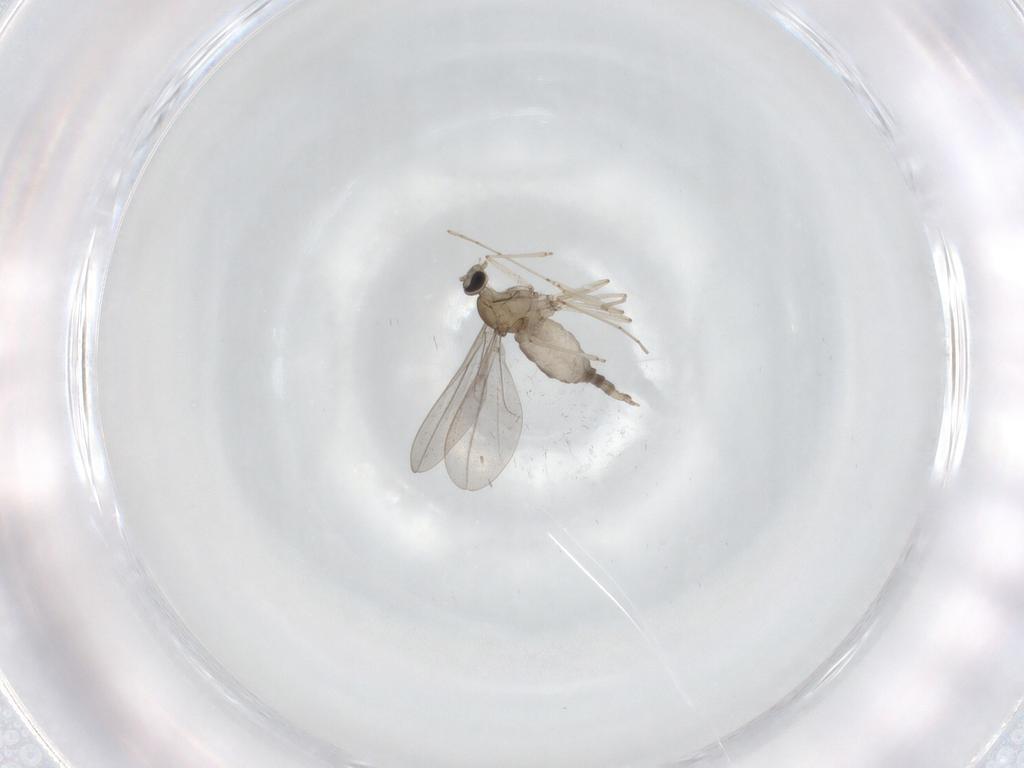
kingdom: Animalia
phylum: Arthropoda
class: Insecta
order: Diptera
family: Cecidomyiidae
